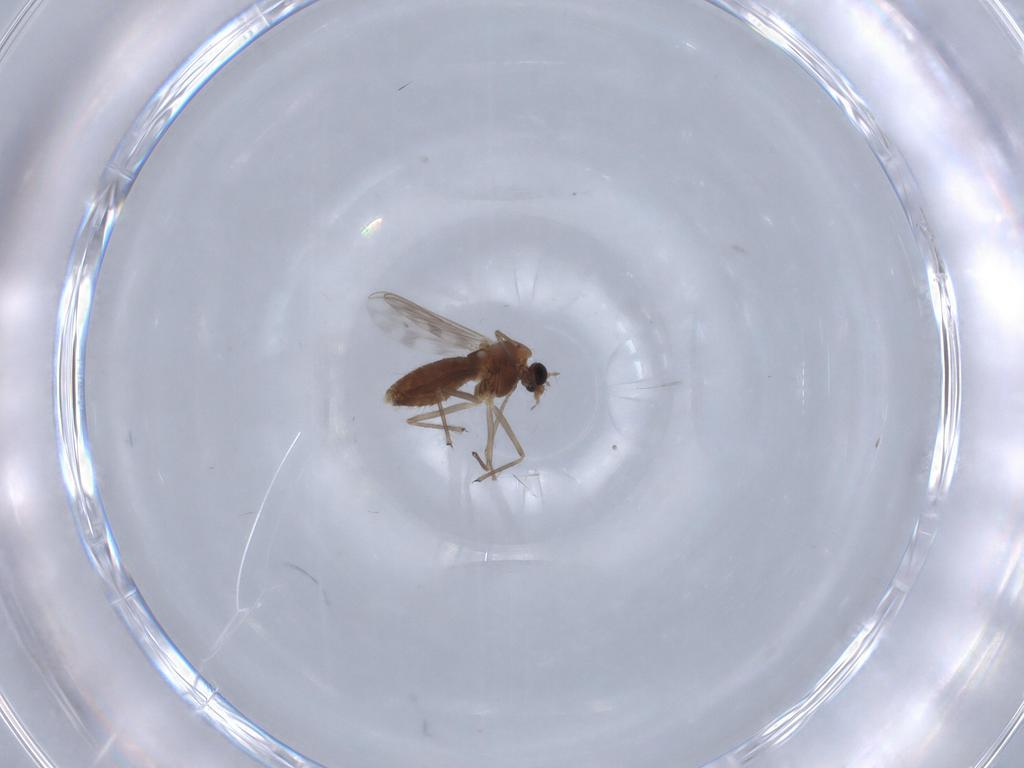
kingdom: Animalia
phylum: Arthropoda
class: Insecta
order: Diptera
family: Chironomidae
